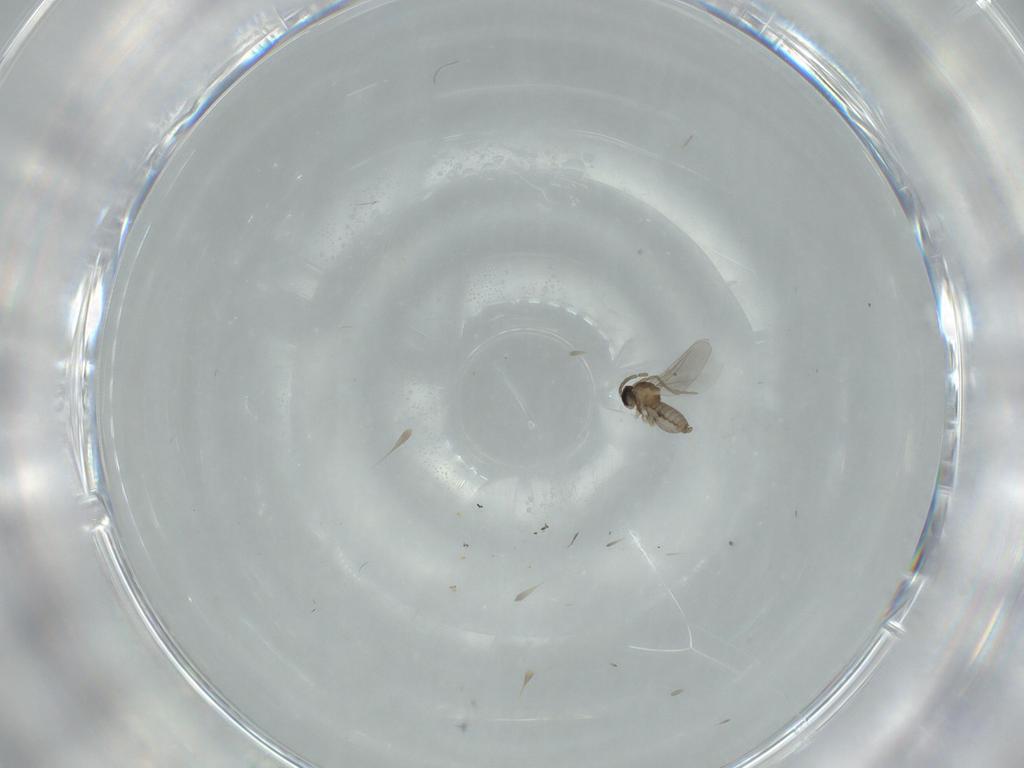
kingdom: Animalia
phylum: Arthropoda
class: Insecta
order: Diptera
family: Cecidomyiidae
